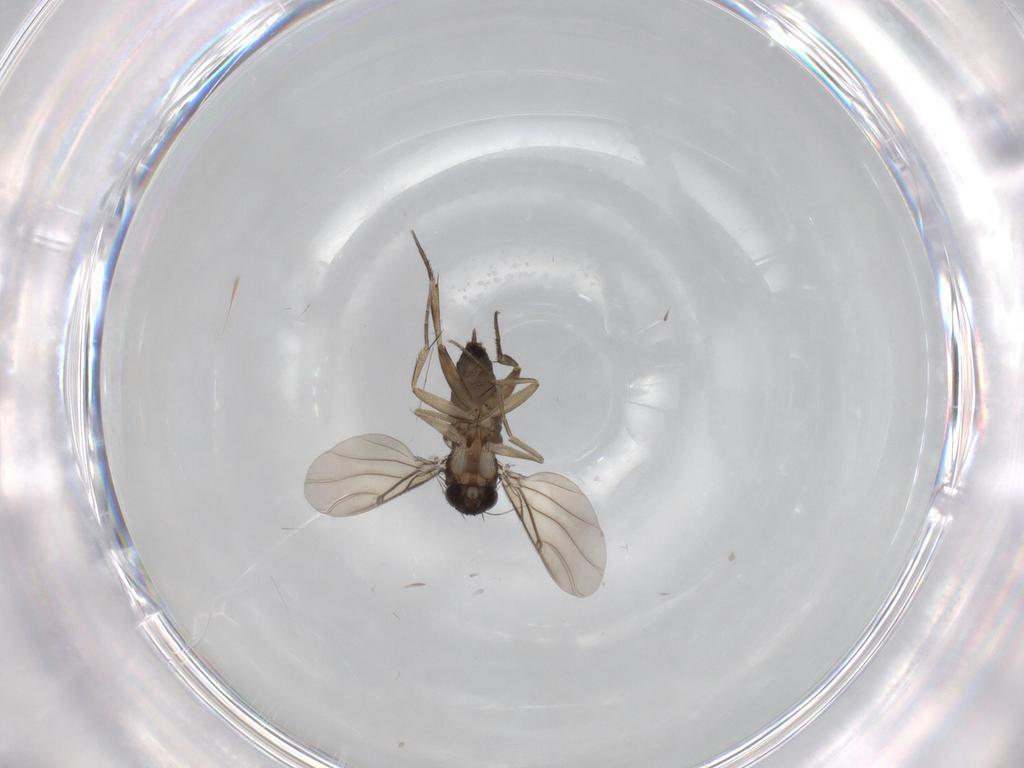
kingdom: Animalia
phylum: Arthropoda
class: Insecta
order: Diptera
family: Phoridae
